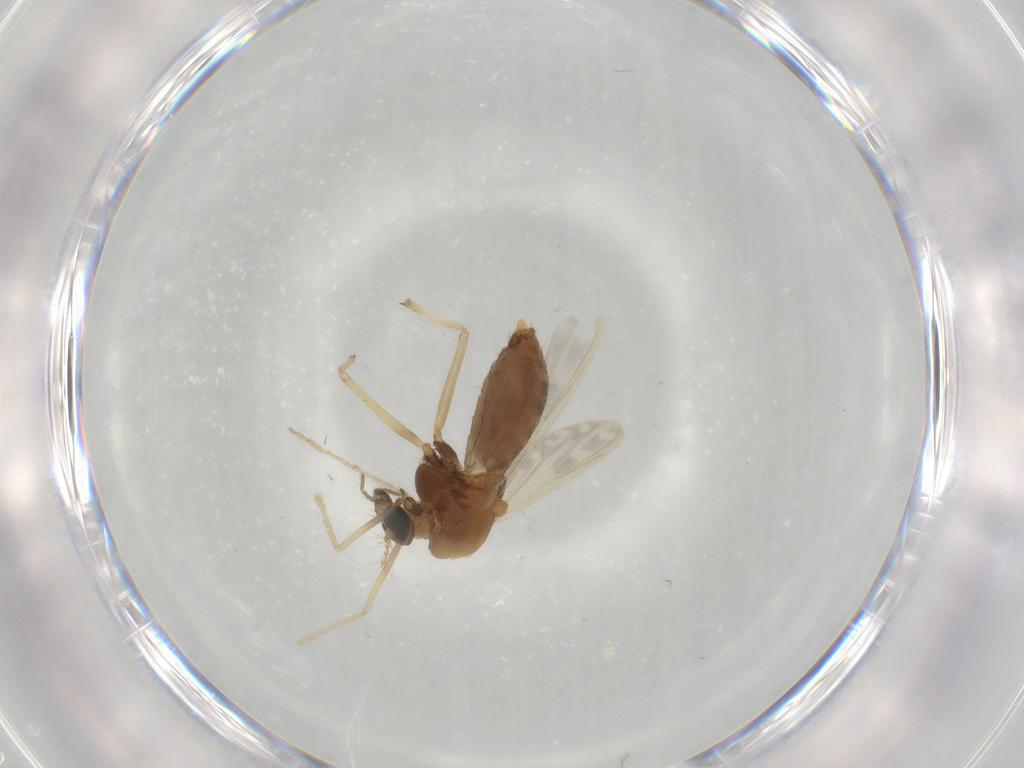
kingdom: Animalia
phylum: Arthropoda
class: Insecta
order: Diptera
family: Chironomidae
